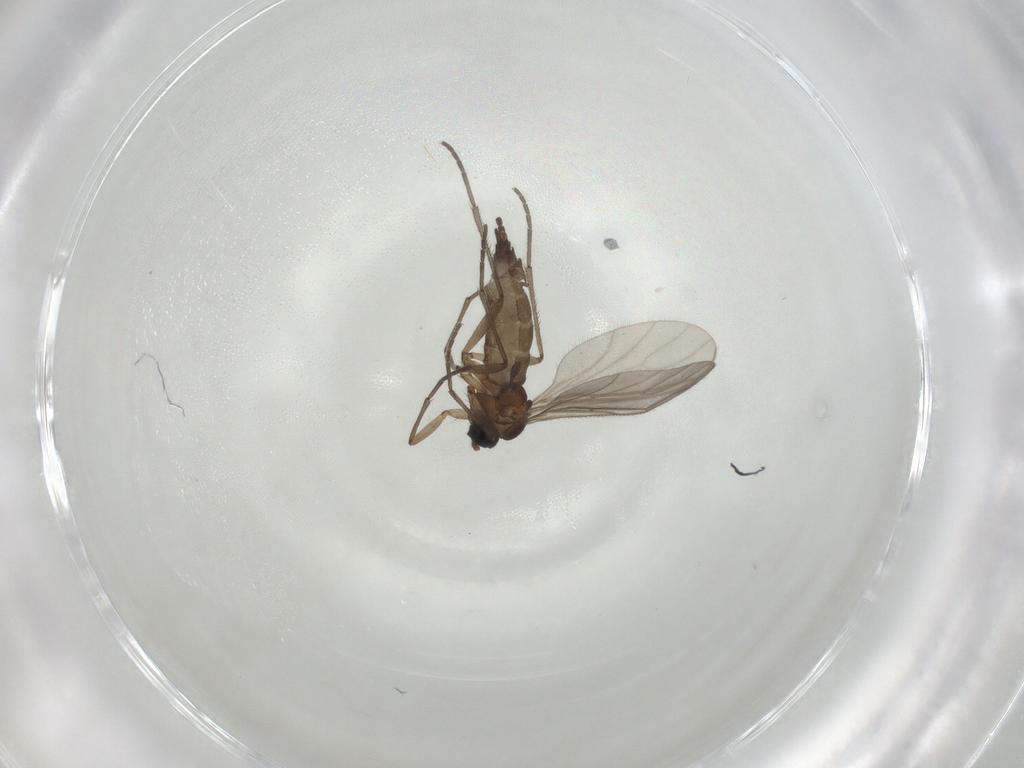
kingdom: Animalia
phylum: Arthropoda
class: Insecta
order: Diptera
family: Sciaridae
